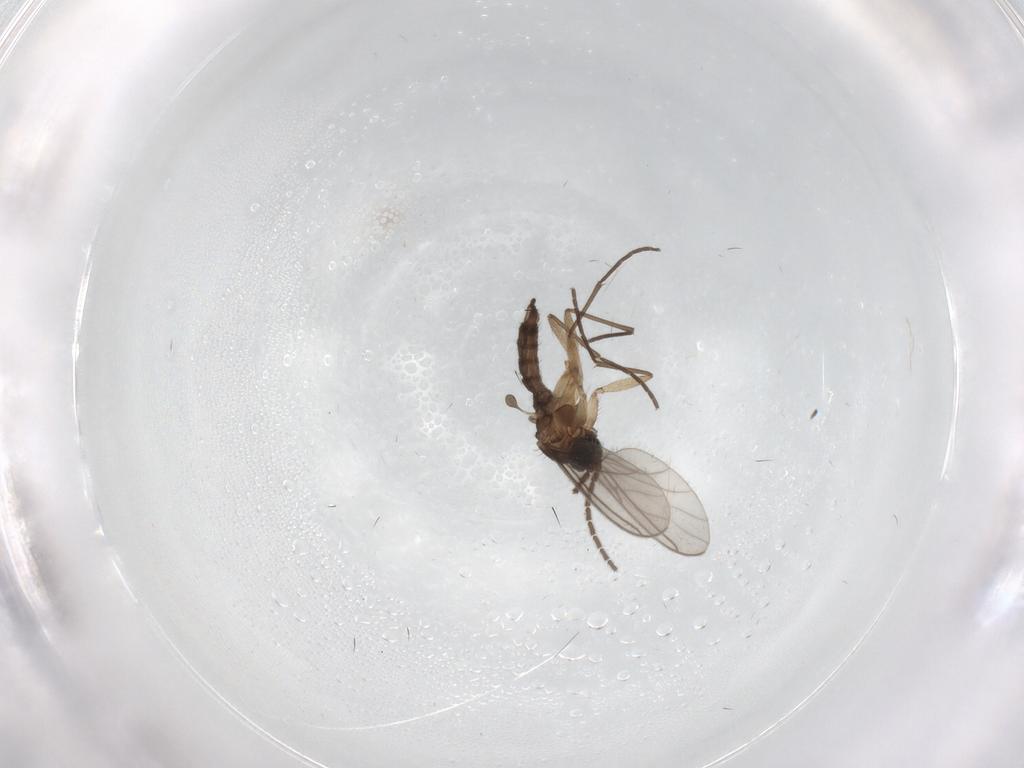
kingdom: Animalia
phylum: Arthropoda
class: Insecta
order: Diptera
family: Sciaridae
